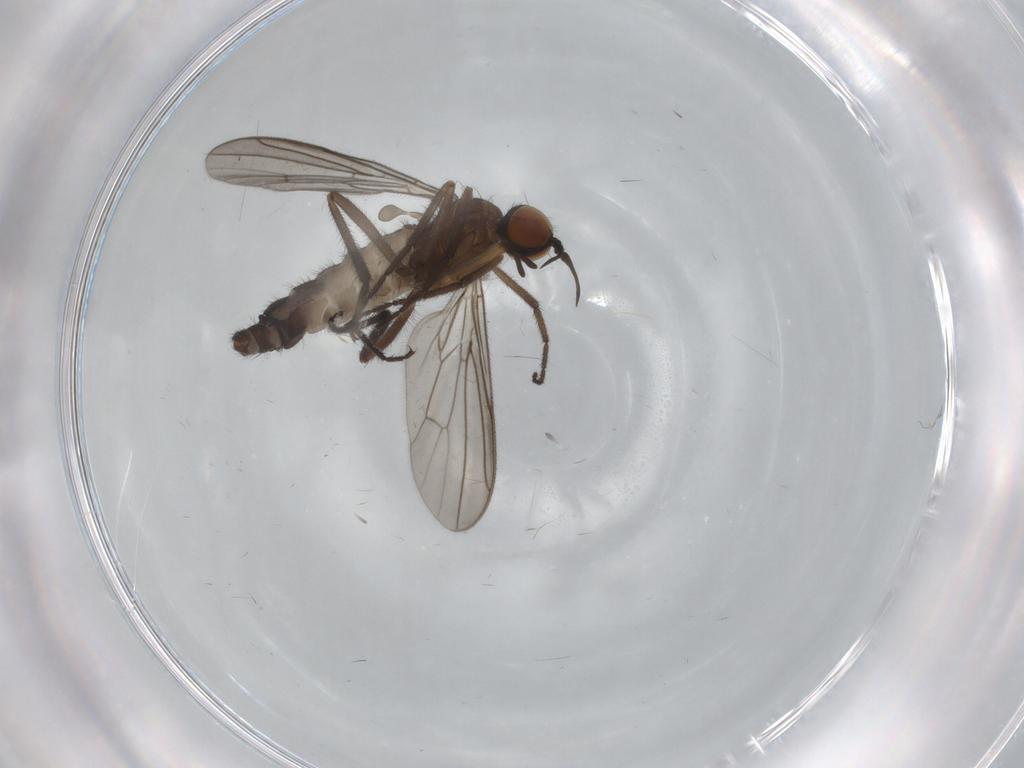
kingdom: Animalia
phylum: Arthropoda
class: Insecta
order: Diptera
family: Empididae
